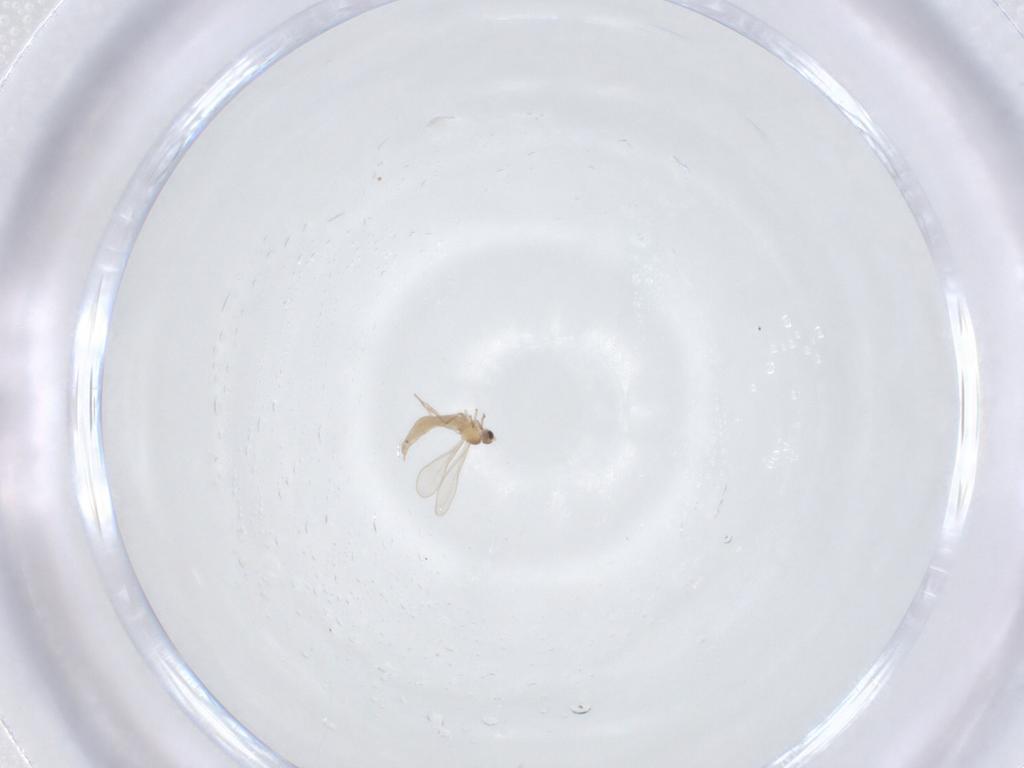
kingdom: Animalia
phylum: Arthropoda
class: Insecta
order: Diptera
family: Cecidomyiidae
